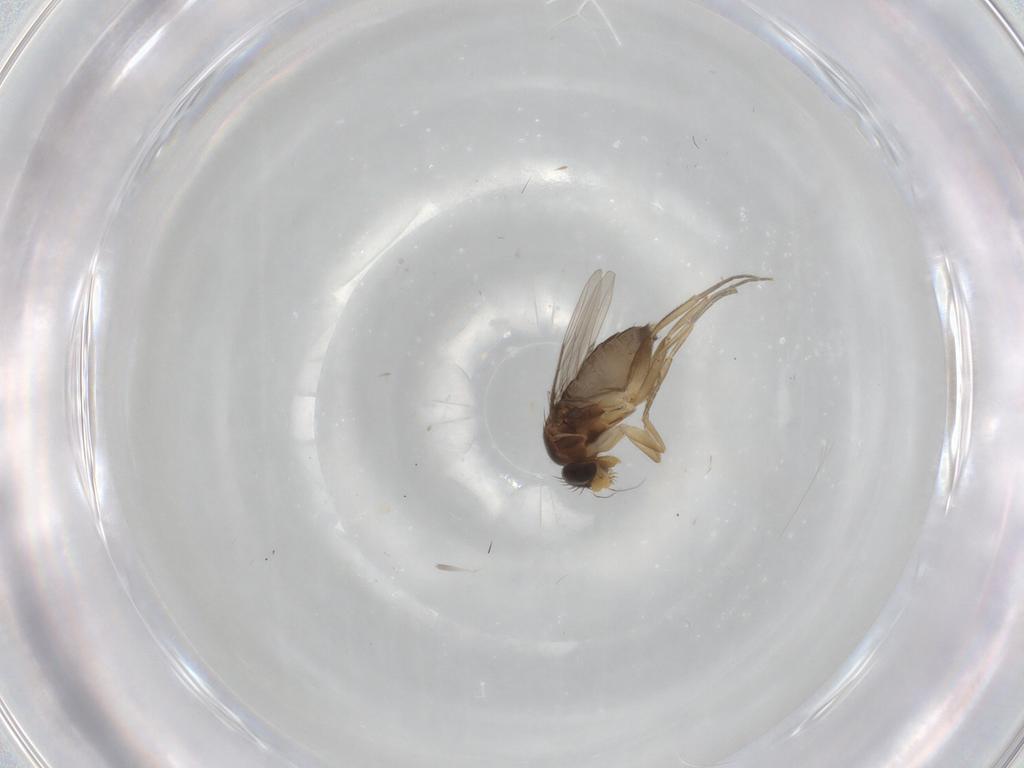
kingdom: Animalia
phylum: Arthropoda
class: Insecta
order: Diptera
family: Phoridae
